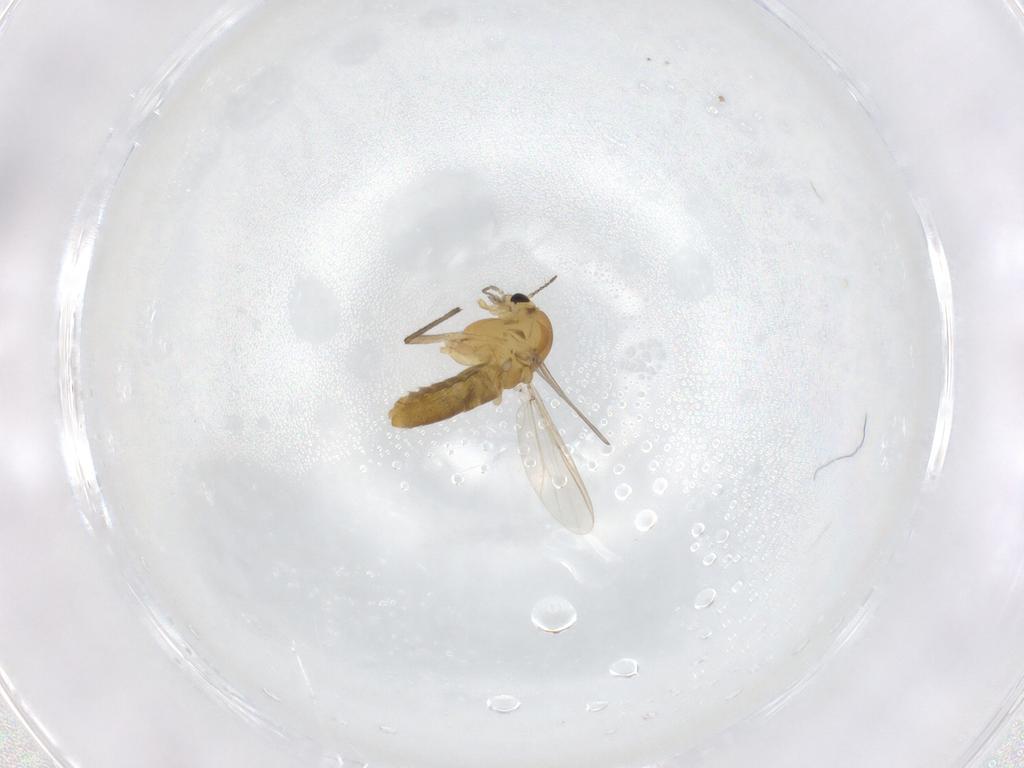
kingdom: Animalia
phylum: Arthropoda
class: Insecta
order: Diptera
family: Chironomidae
